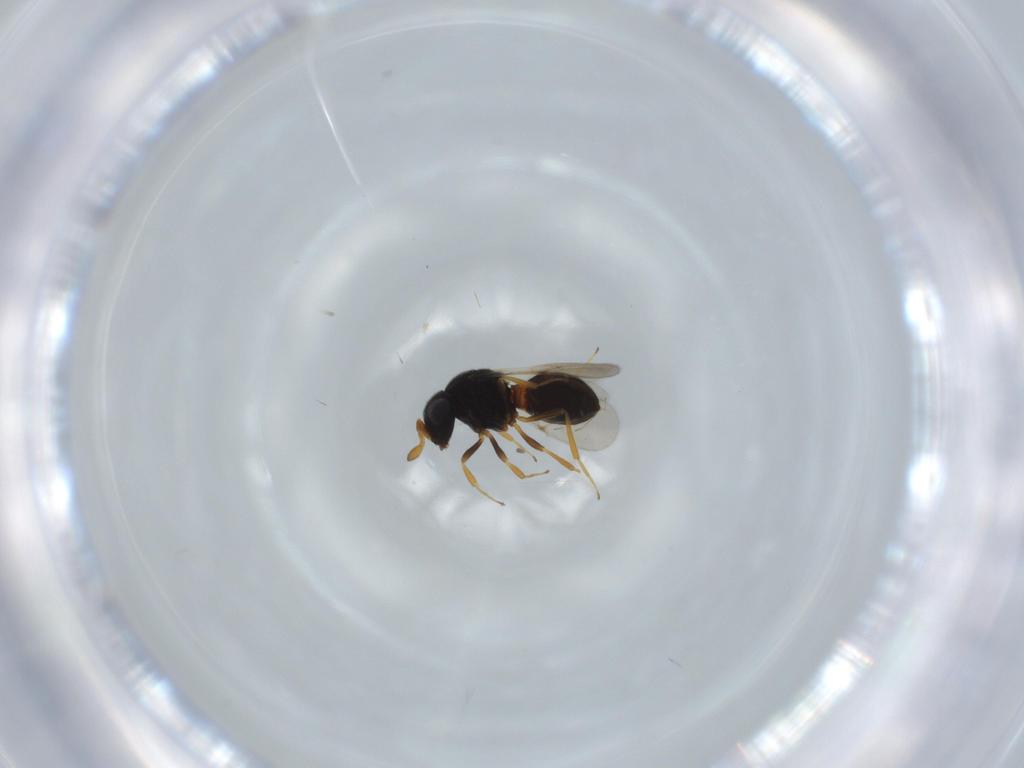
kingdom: Animalia
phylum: Arthropoda
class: Insecta
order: Hymenoptera
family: Scelionidae
